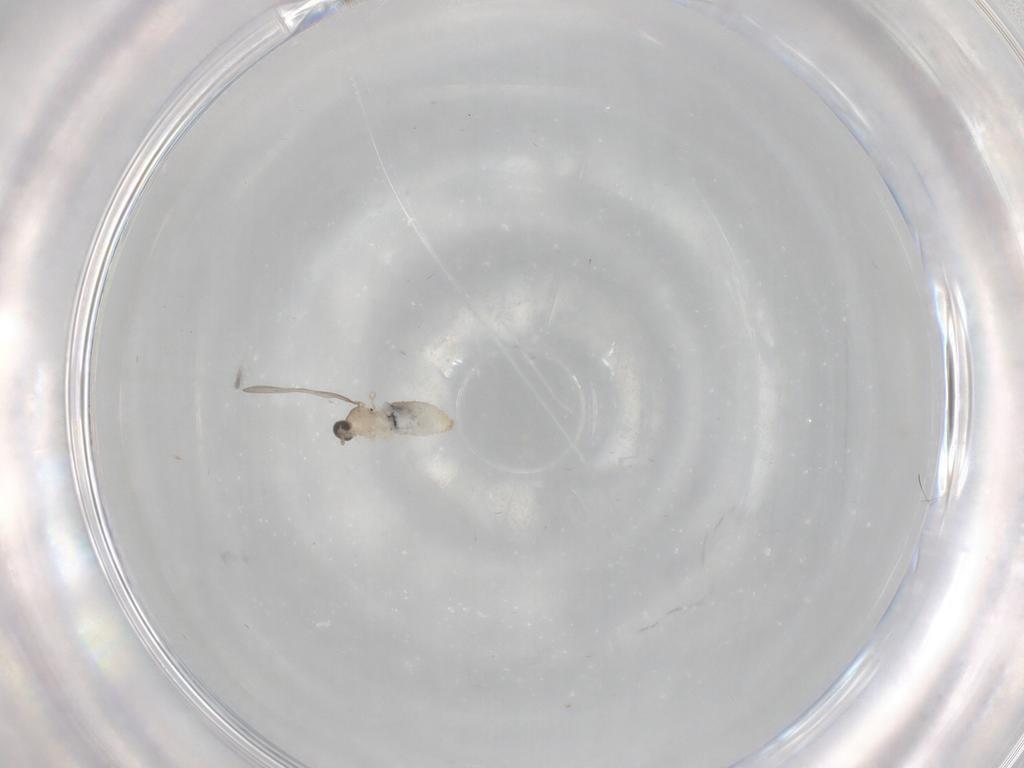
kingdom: Animalia
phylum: Arthropoda
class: Insecta
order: Diptera
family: Cecidomyiidae
